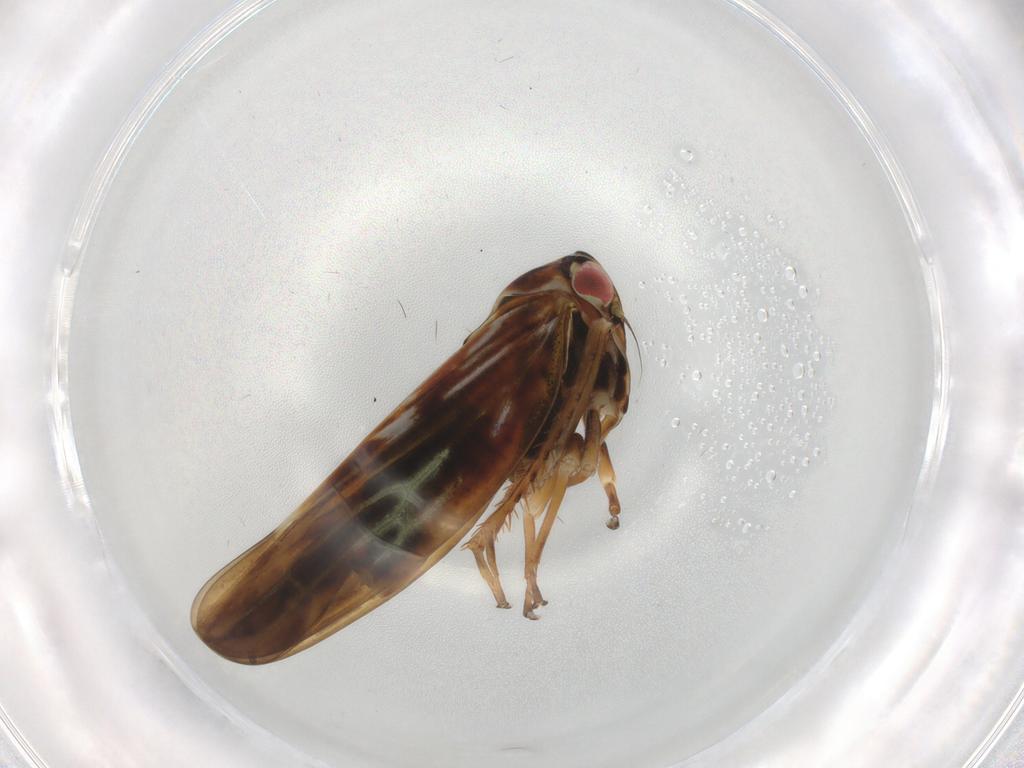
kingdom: Animalia
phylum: Arthropoda
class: Insecta
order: Hemiptera
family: Cicadellidae
